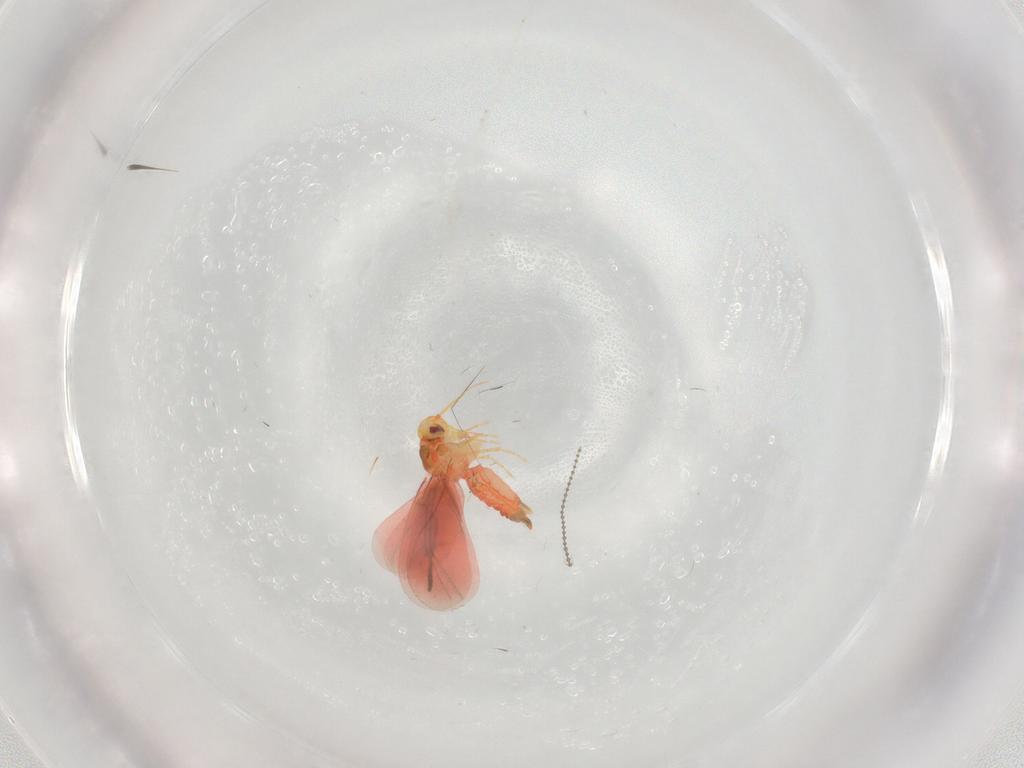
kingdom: Animalia
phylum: Arthropoda
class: Insecta
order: Hemiptera
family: Aleyrodidae
